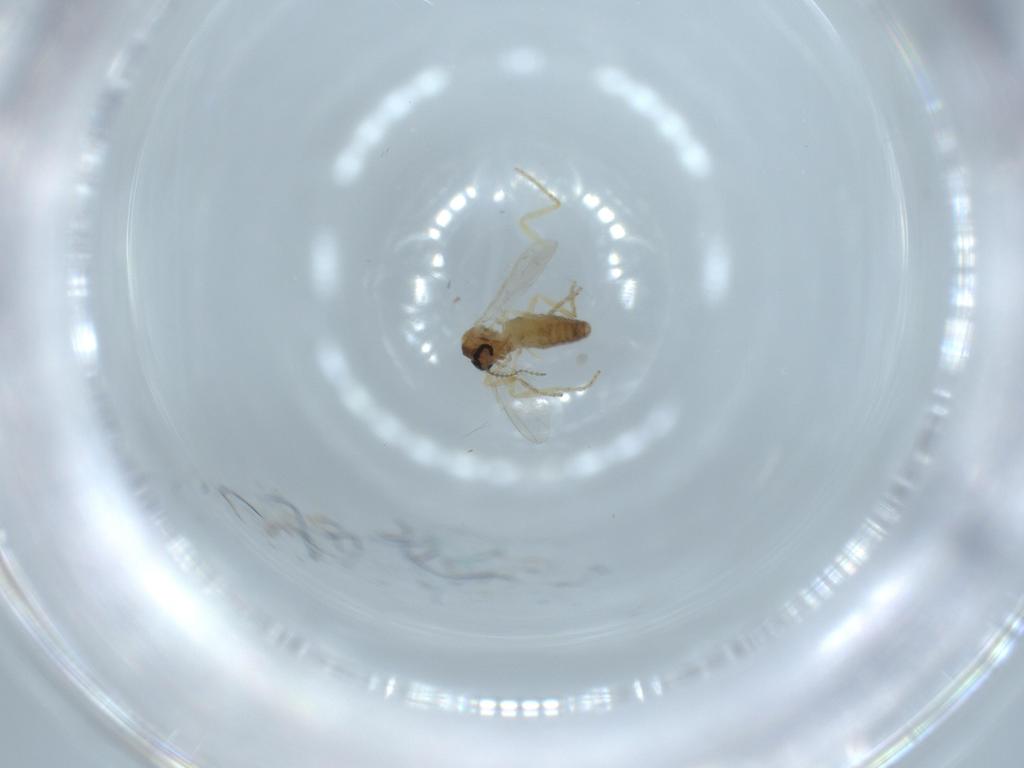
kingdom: Animalia
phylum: Arthropoda
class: Insecta
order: Diptera
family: Ceratopogonidae
